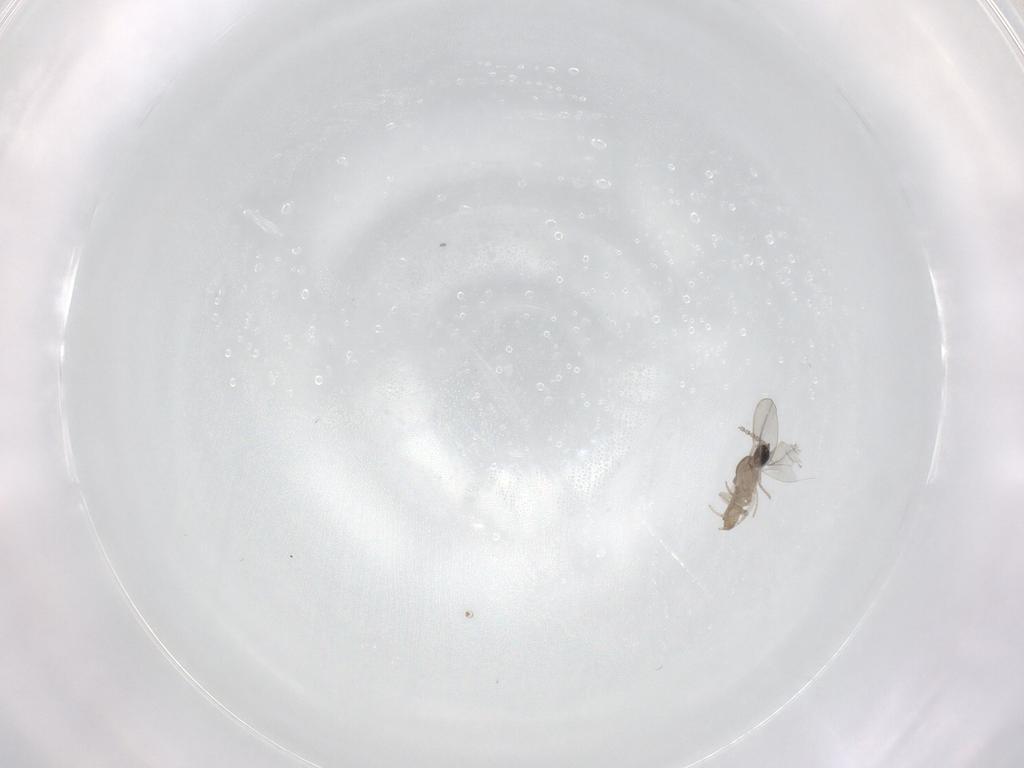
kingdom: Animalia
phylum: Arthropoda
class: Insecta
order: Diptera
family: Cecidomyiidae
